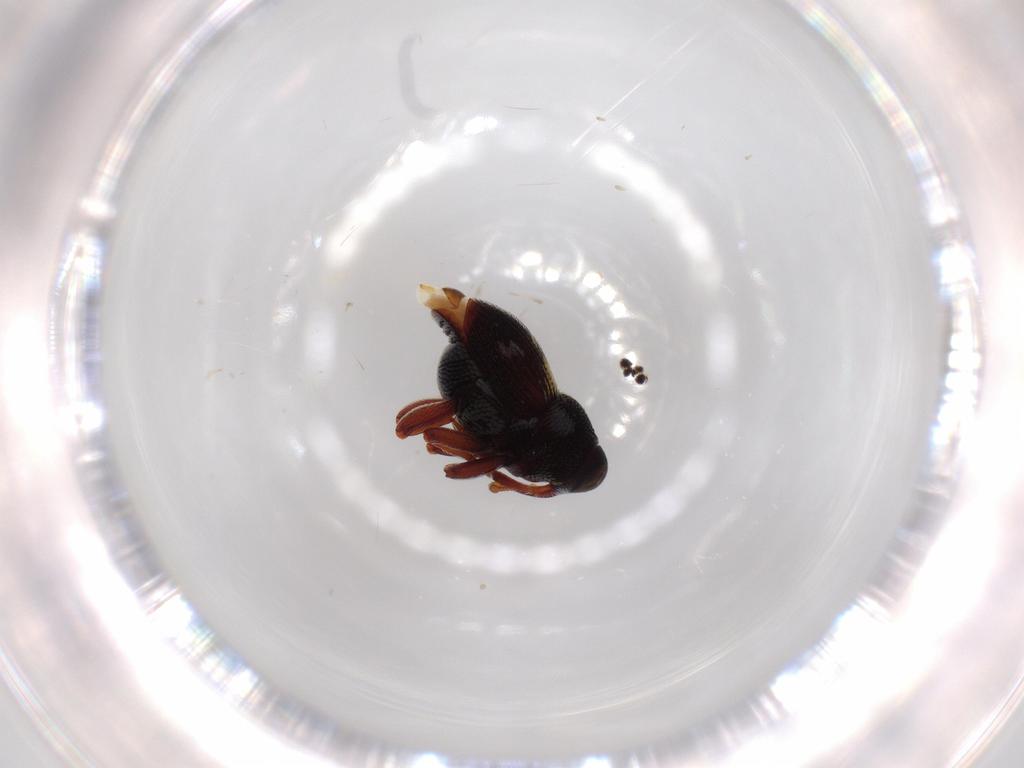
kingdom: Animalia
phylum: Arthropoda
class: Insecta
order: Coleoptera
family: Curculionidae
